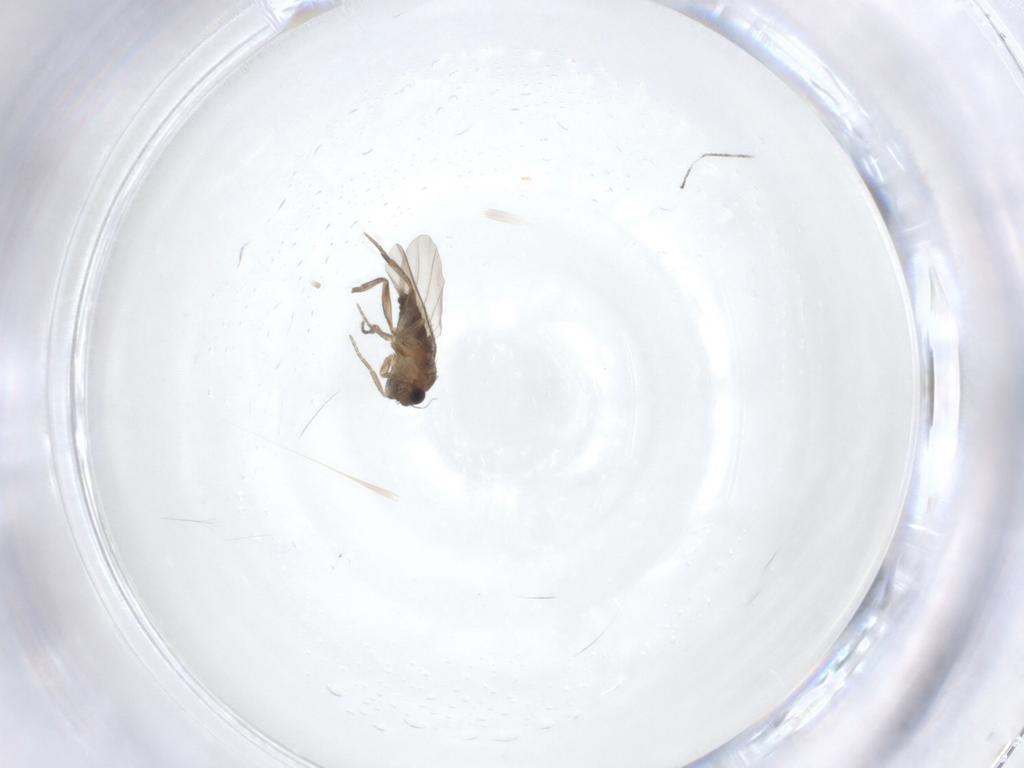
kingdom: Animalia
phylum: Arthropoda
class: Insecta
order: Diptera
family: Phoridae
